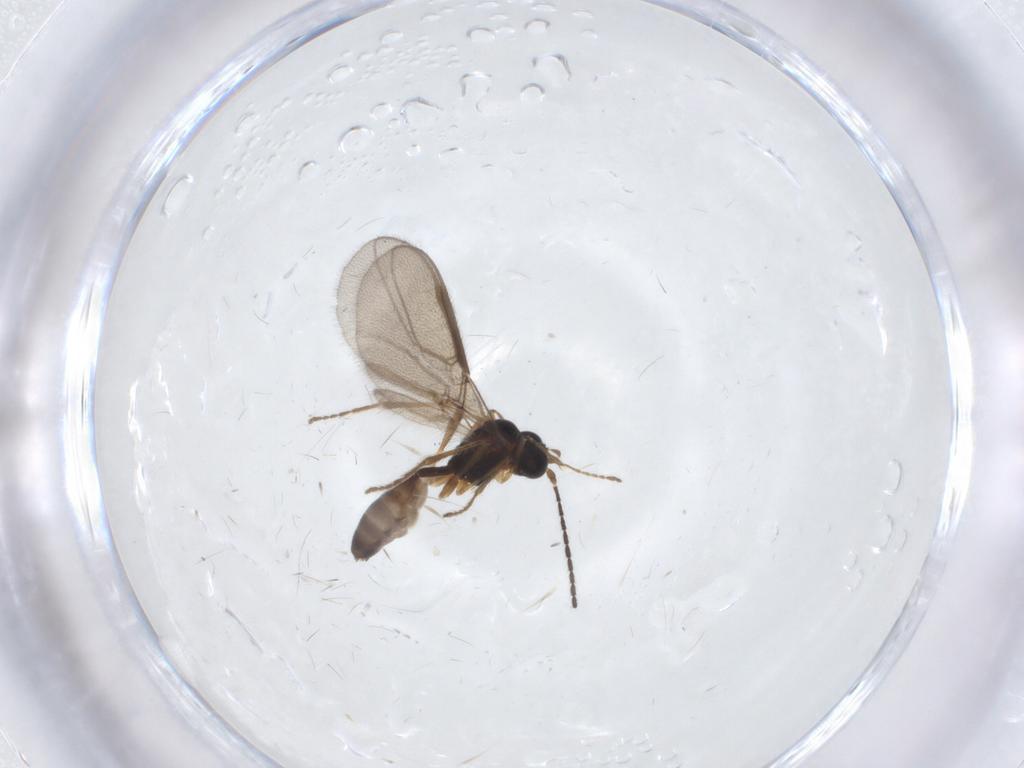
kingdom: Animalia
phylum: Arthropoda
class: Insecta
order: Hymenoptera
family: Braconidae
